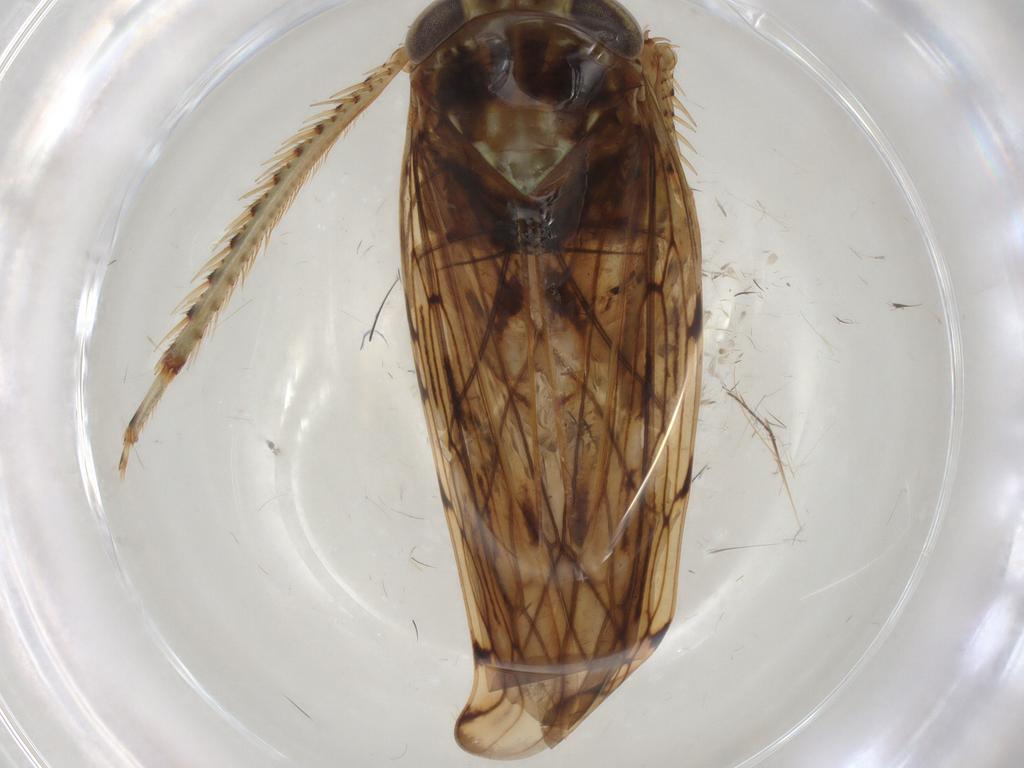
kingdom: Animalia
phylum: Arthropoda
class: Insecta
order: Hemiptera
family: Cicadellidae
